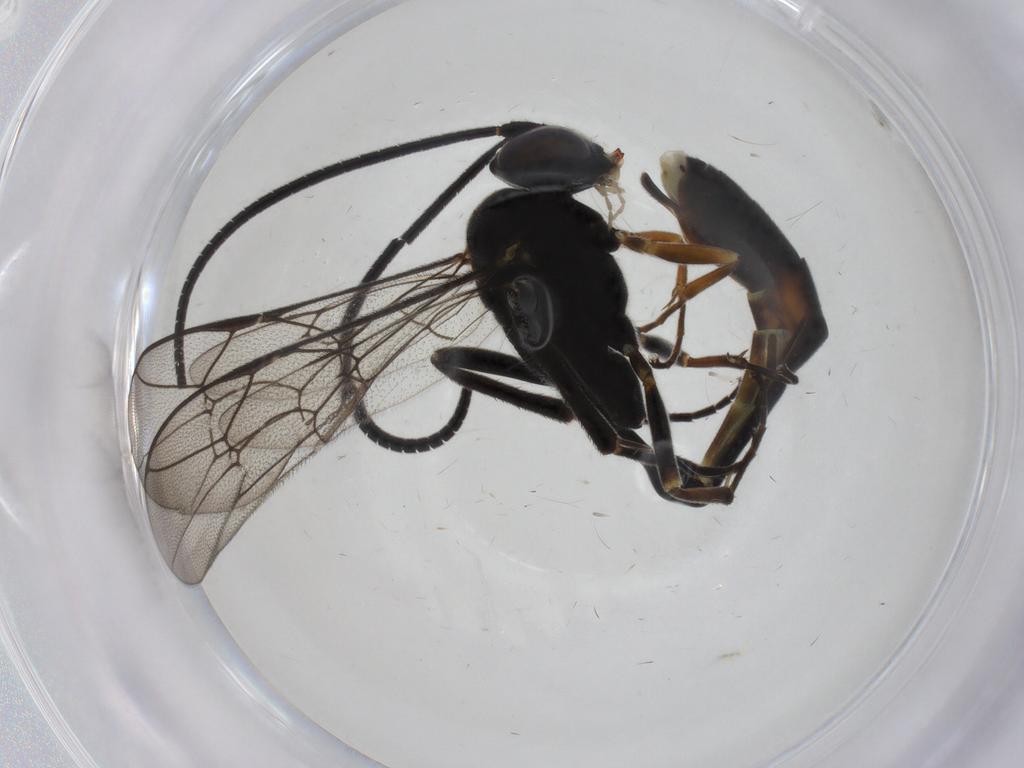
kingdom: Animalia
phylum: Arthropoda
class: Insecta
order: Hymenoptera
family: Ichneumonidae
